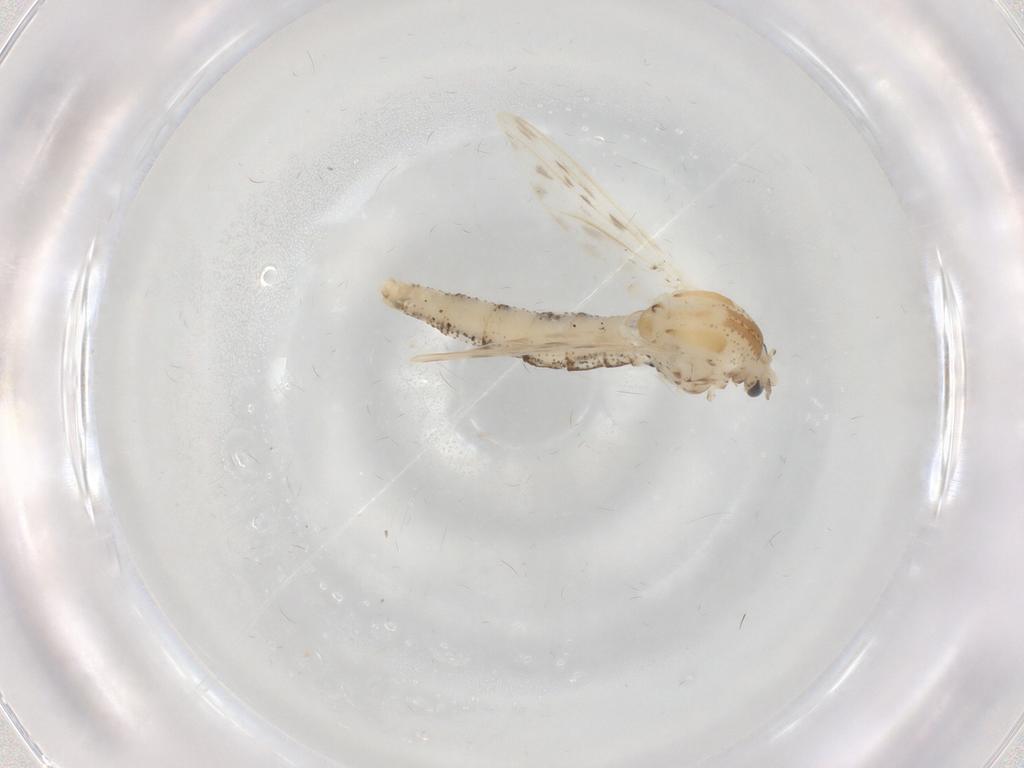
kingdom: Animalia
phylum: Arthropoda
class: Insecta
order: Diptera
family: Chaoboridae
